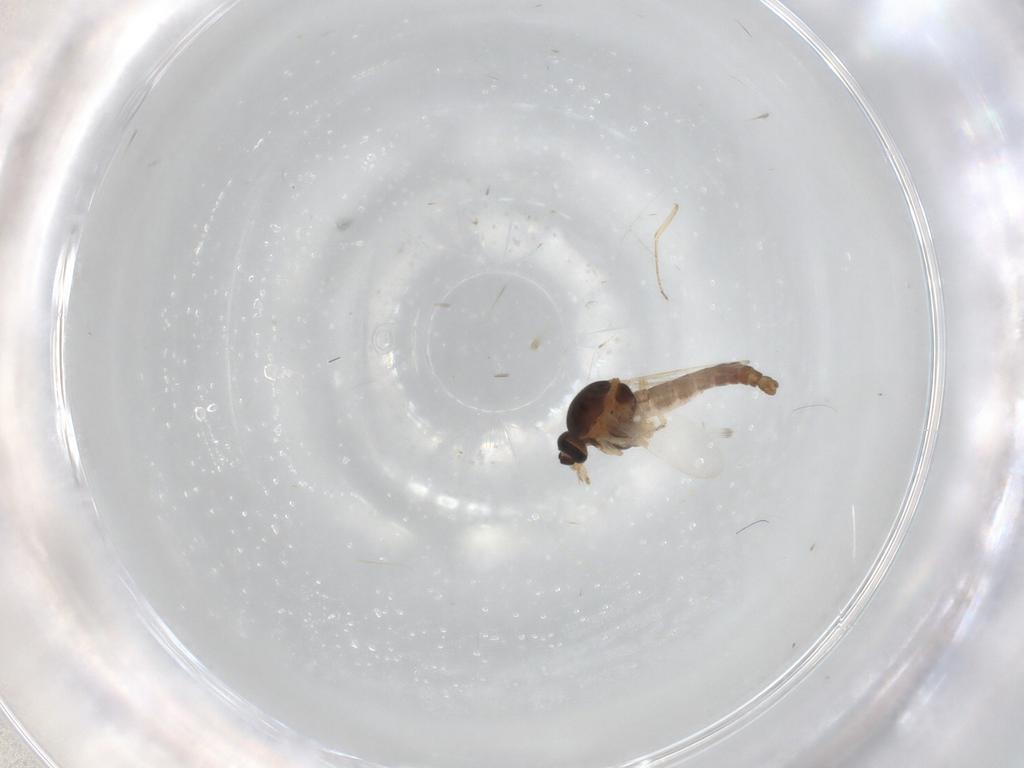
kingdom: Animalia
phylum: Arthropoda
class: Insecta
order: Diptera
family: Ceratopogonidae
